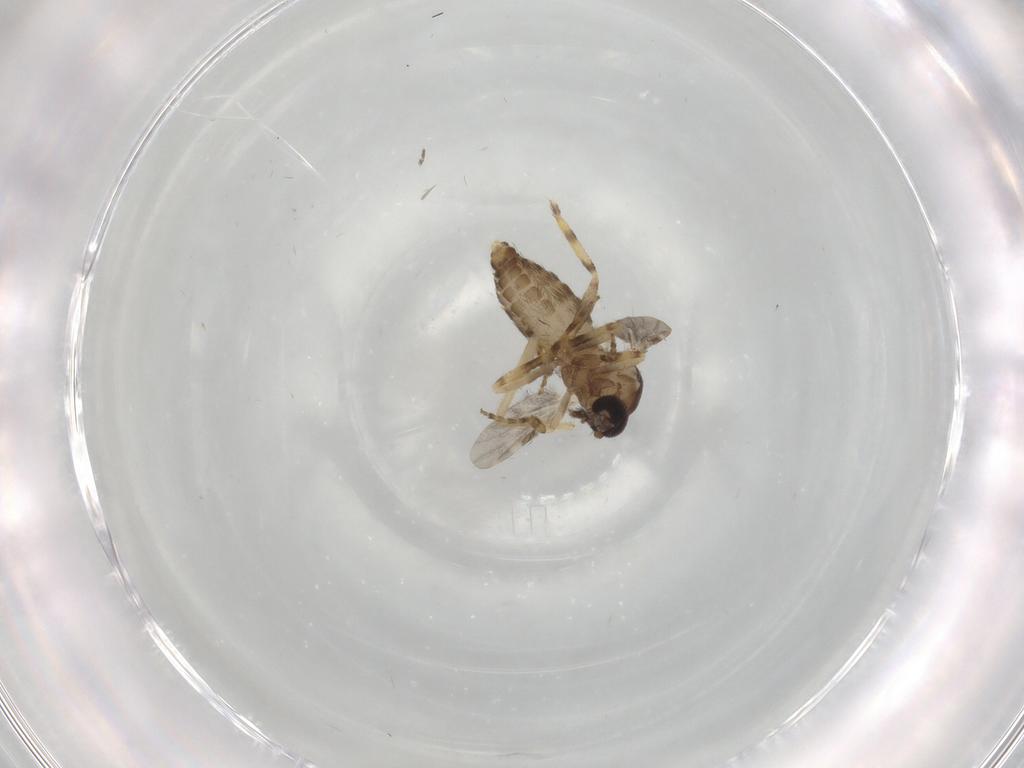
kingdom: Animalia
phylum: Arthropoda
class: Insecta
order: Diptera
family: Ceratopogonidae
